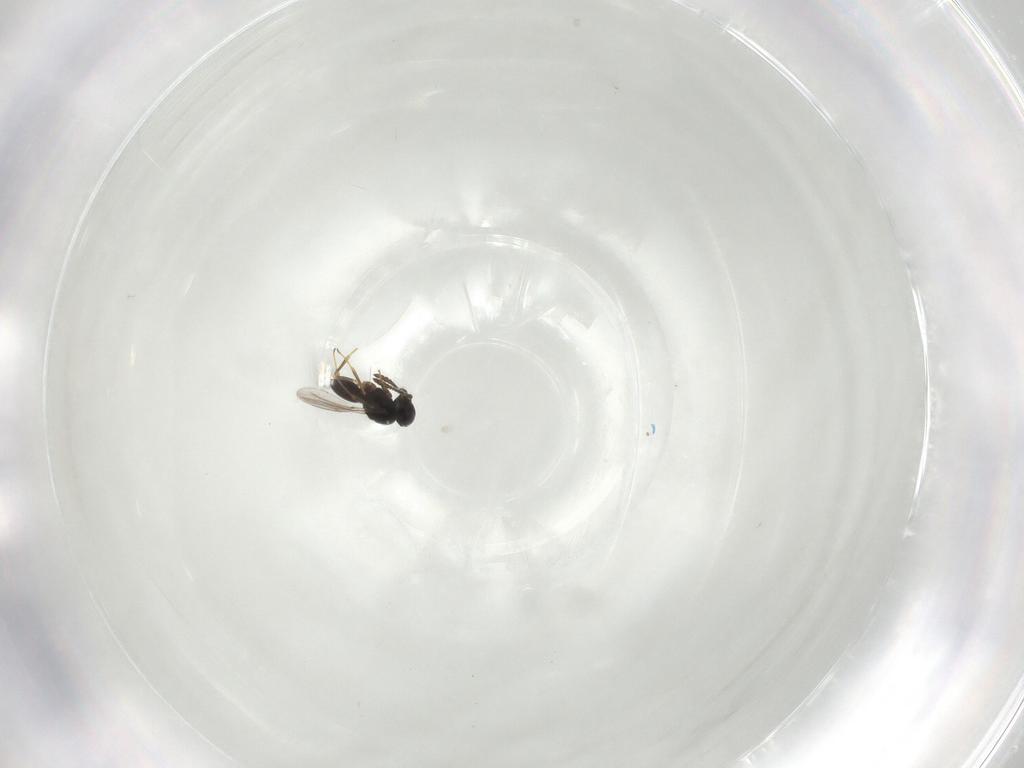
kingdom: Animalia
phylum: Arthropoda
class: Insecta
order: Hymenoptera
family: Scelionidae
